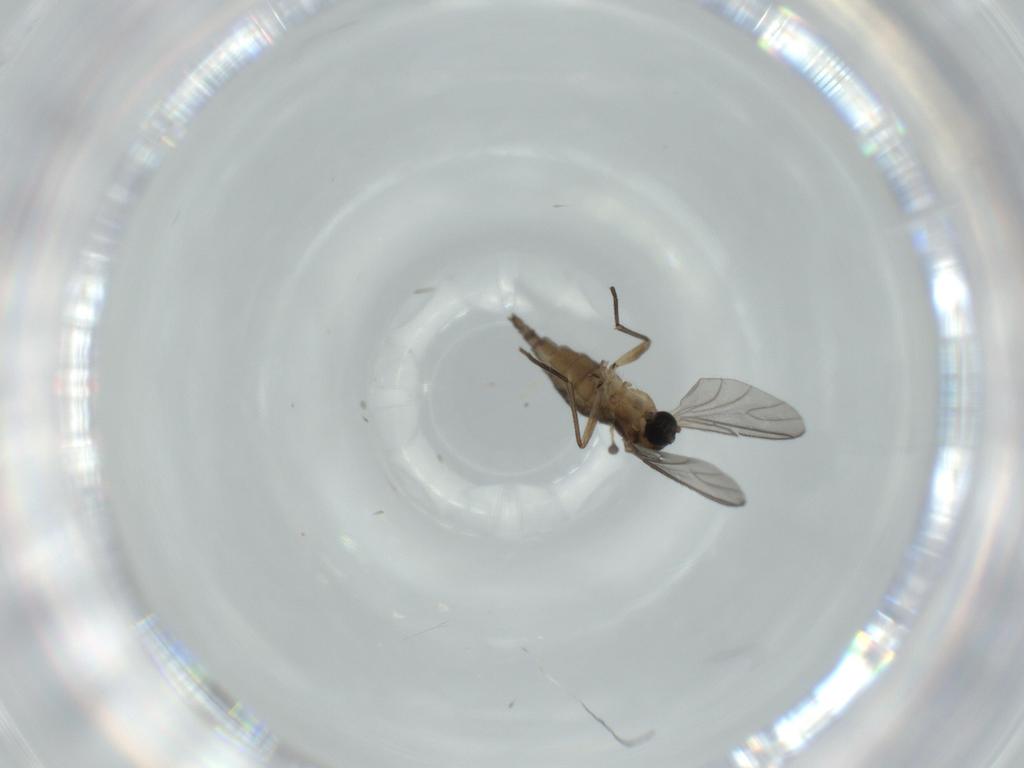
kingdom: Animalia
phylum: Arthropoda
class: Insecta
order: Diptera
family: Sciaridae
